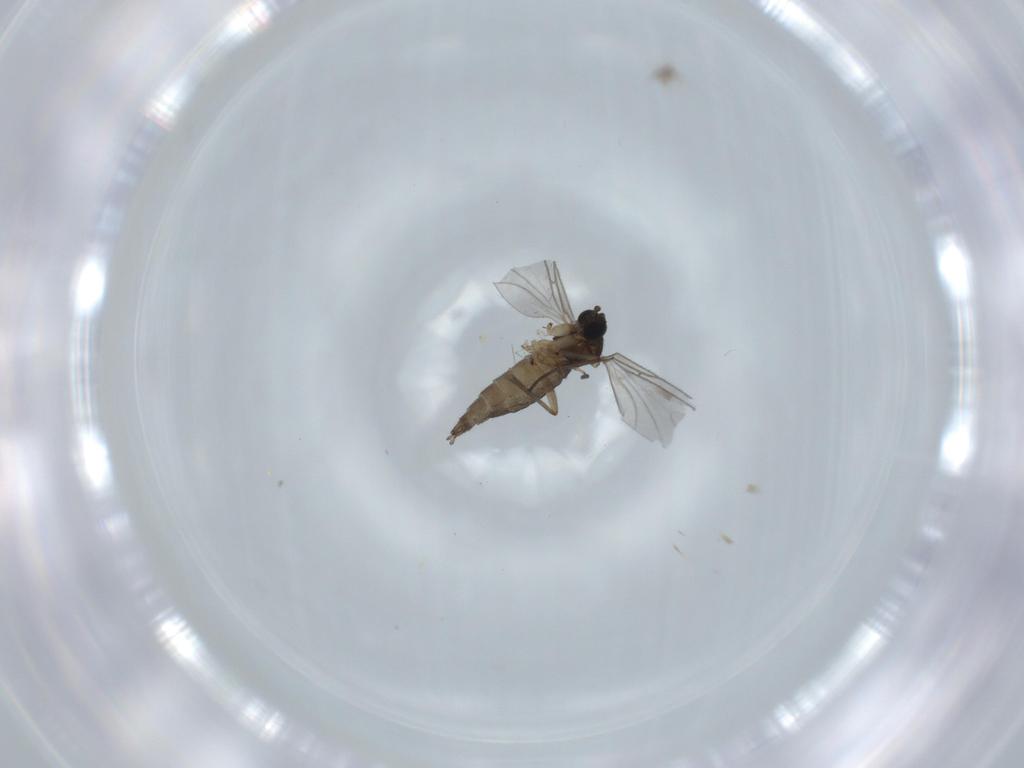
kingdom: Animalia
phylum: Arthropoda
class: Insecta
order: Diptera
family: Sciaridae
